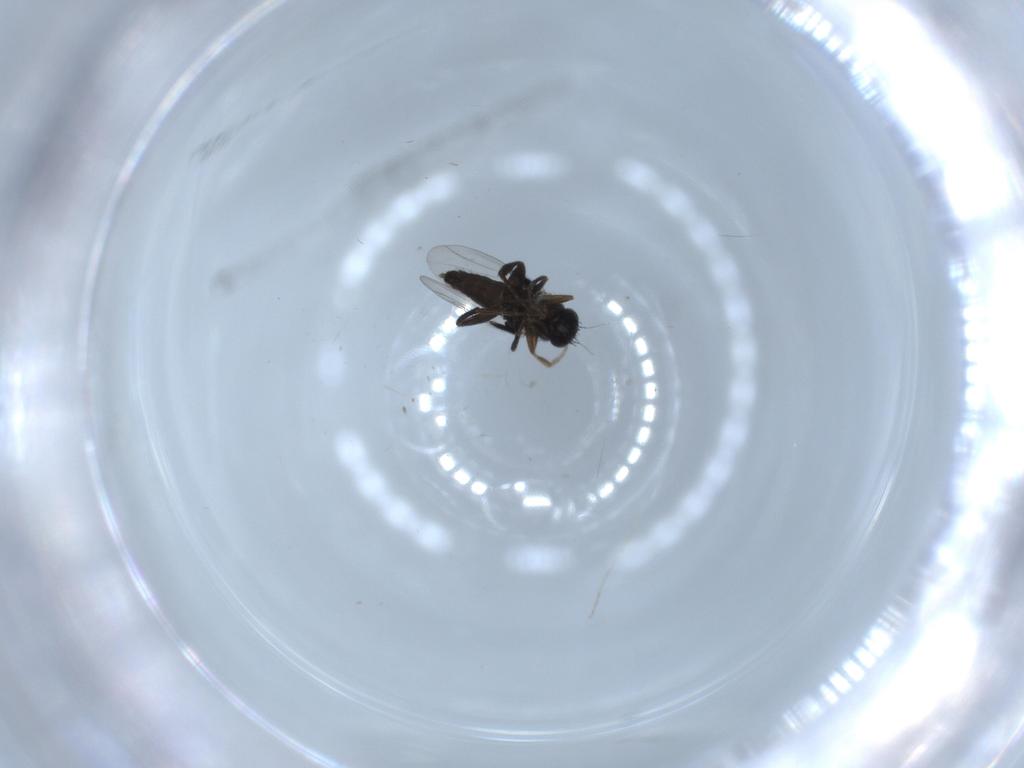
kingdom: Animalia
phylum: Arthropoda
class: Insecta
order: Diptera
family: Phoridae
